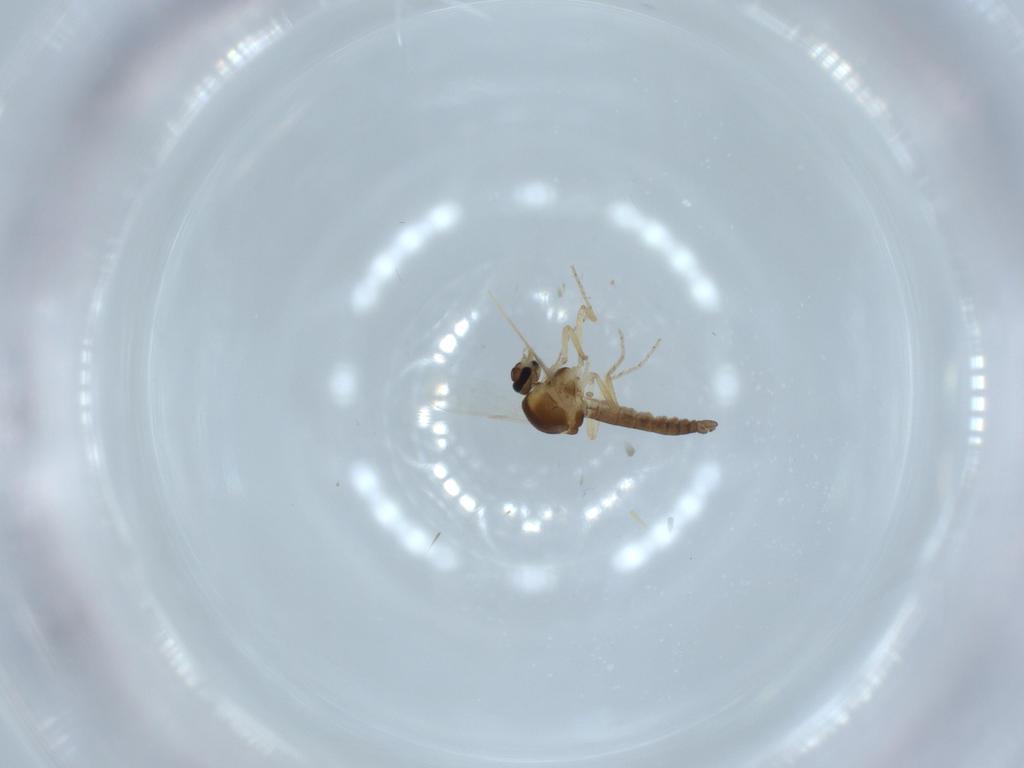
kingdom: Animalia
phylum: Arthropoda
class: Insecta
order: Diptera
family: Ceratopogonidae
